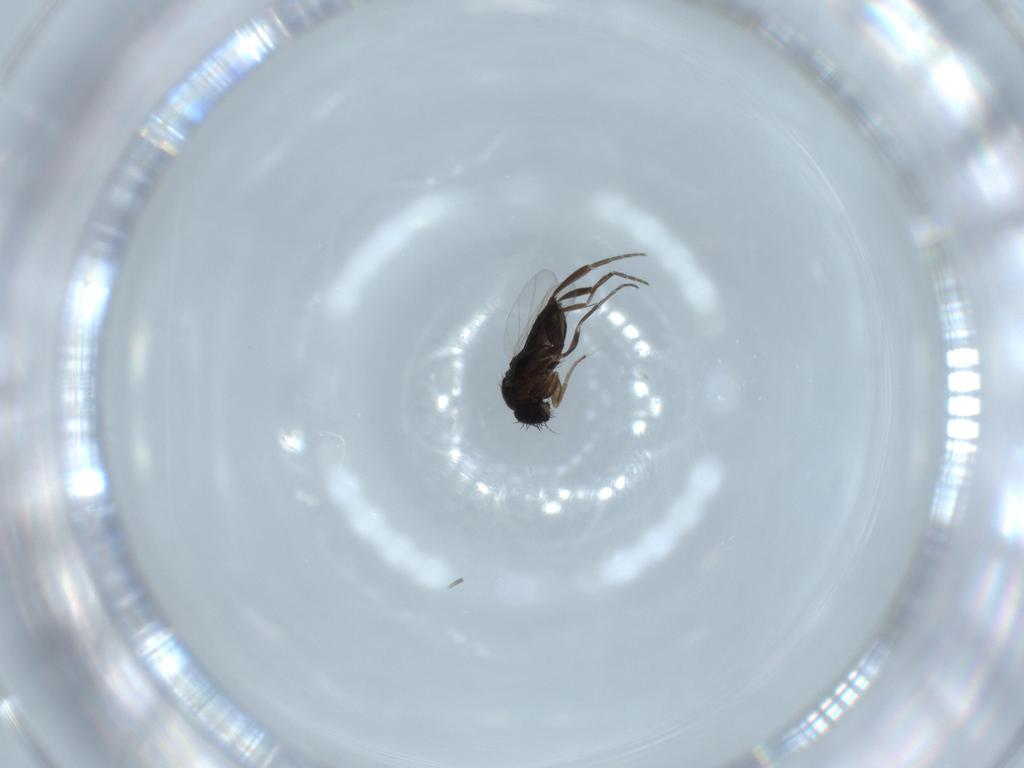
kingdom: Animalia
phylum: Arthropoda
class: Insecta
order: Diptera
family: Phoridae
